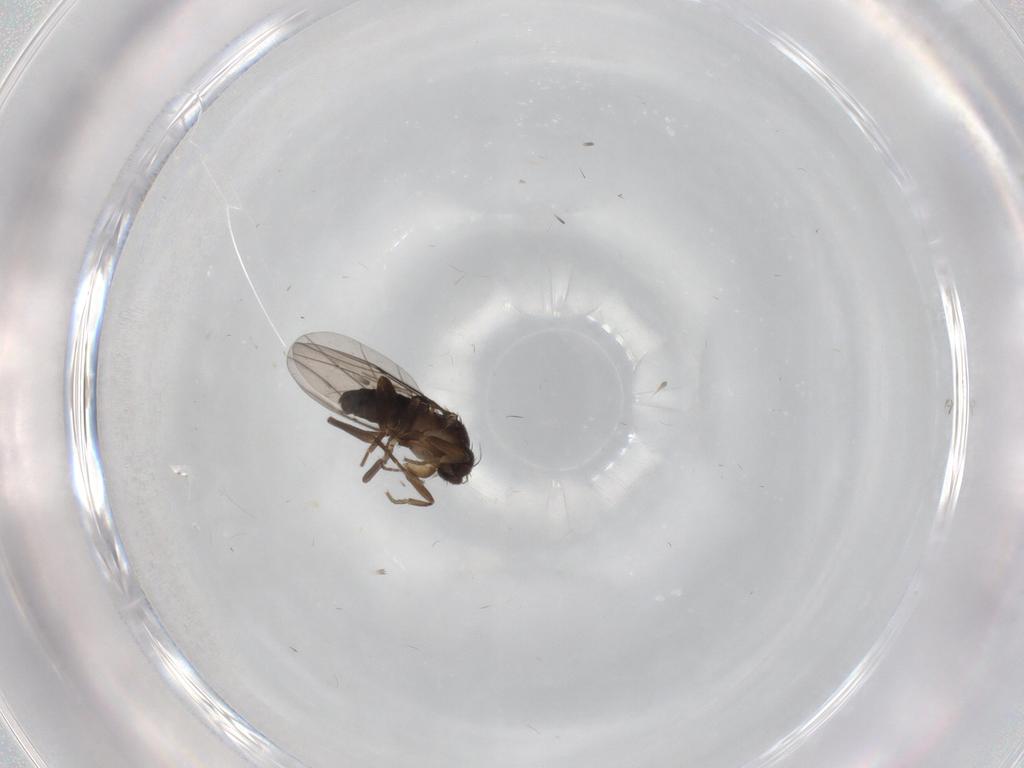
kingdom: Animalia
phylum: Arthropoda
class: Insecta
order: Diptera
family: Phoridae
